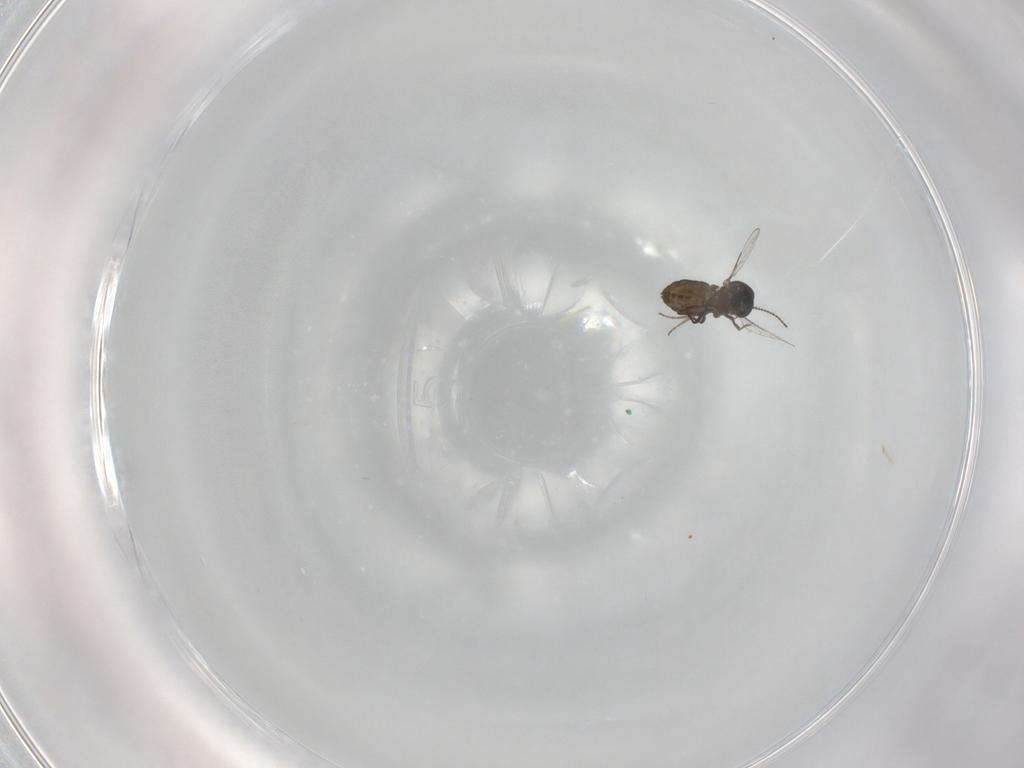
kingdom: Animalia
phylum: Arthropoda
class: Insecta
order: Diptera
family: Ceratopogonidae
